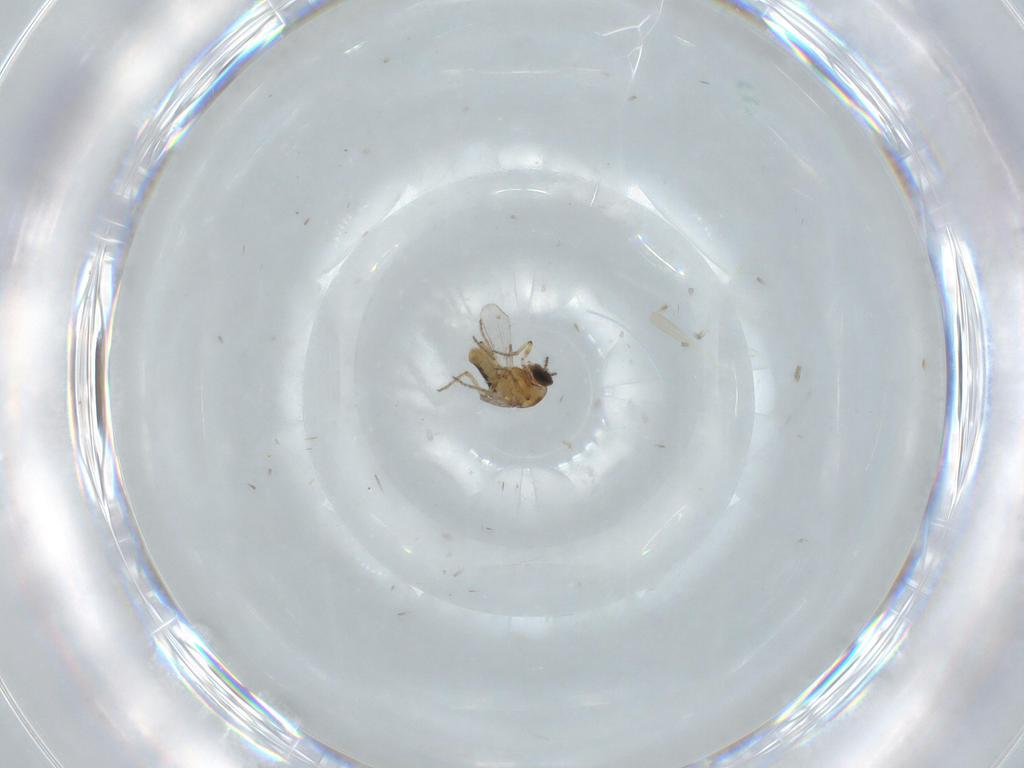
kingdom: Animalia
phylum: Arthropoda
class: Insecta
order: Diptera
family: Ceratopogonidae
